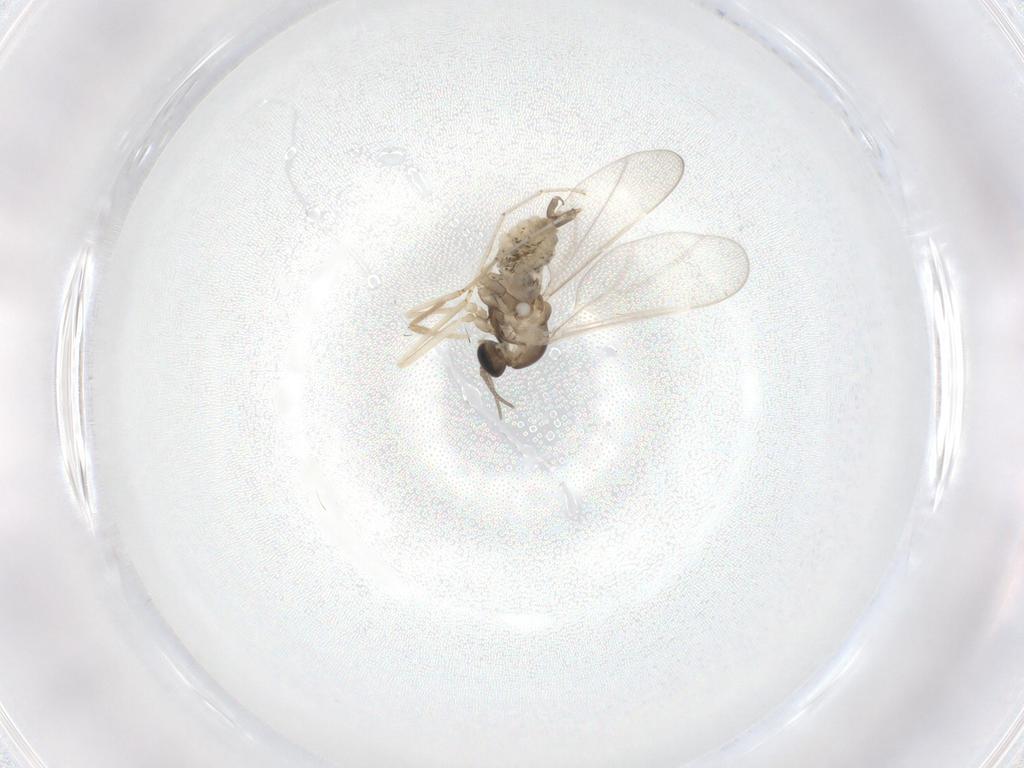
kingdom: Animalia
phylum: Arthropoda
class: Insecta
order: Diptera
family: Cecidomyiidae
